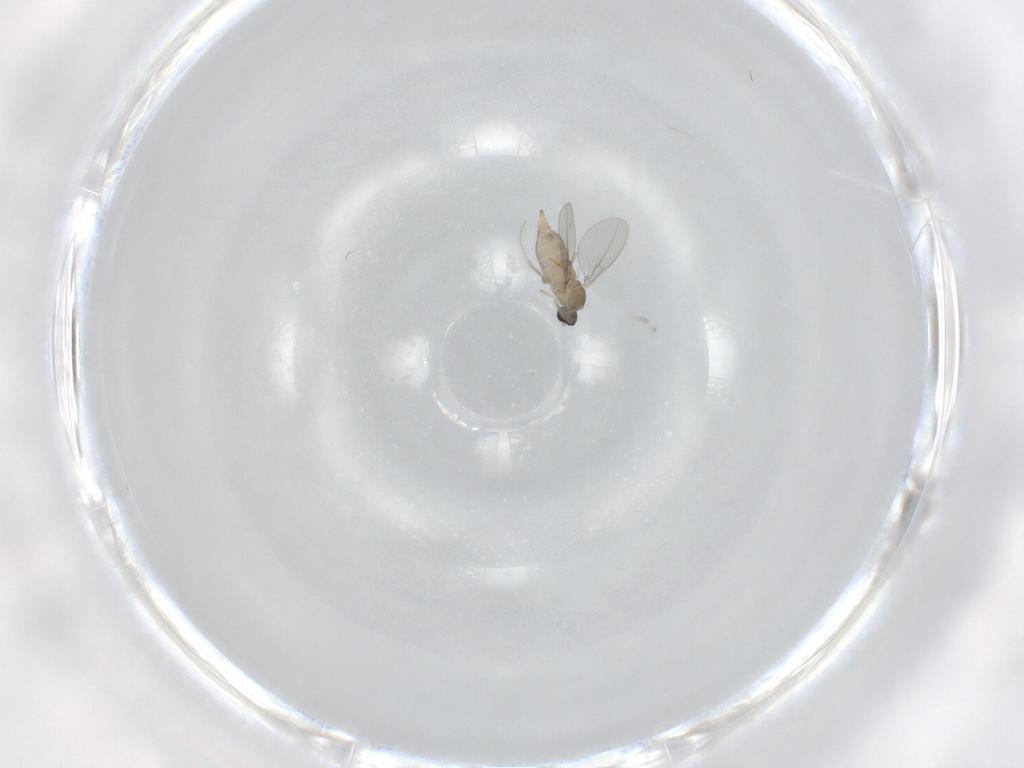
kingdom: Animalia
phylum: Arthropoda
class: Insecta
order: Diptera
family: Cecidomyiidae
